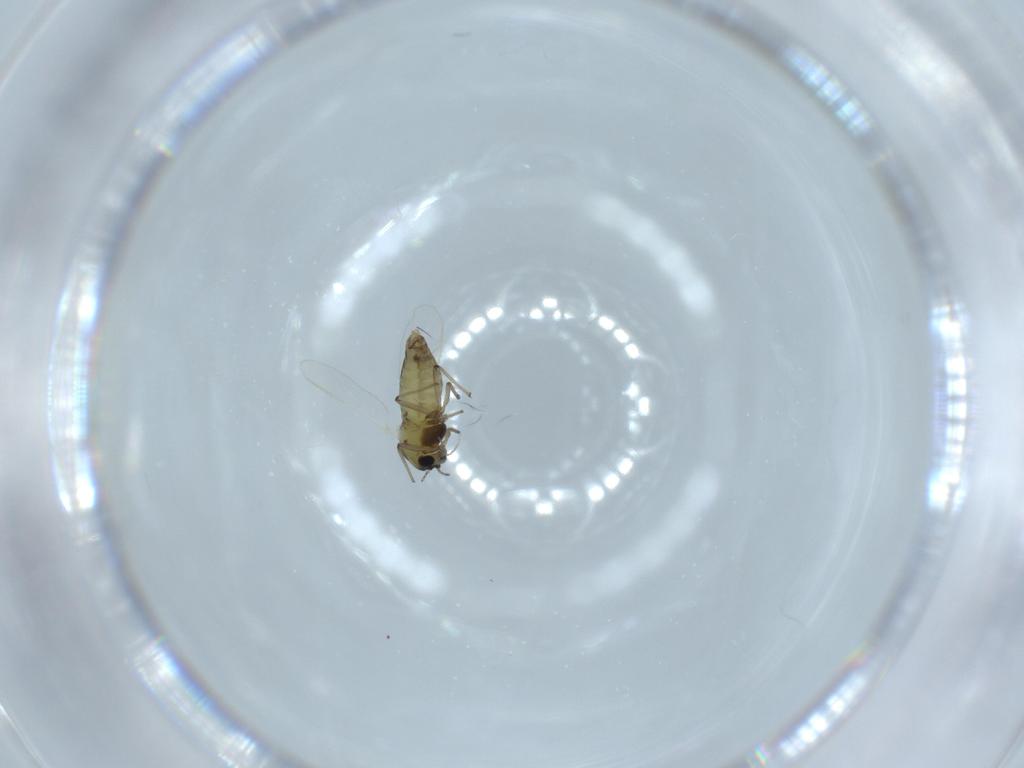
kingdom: Animalia
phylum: Arthropoda
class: Insecta
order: Diptera
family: Chironomidae
